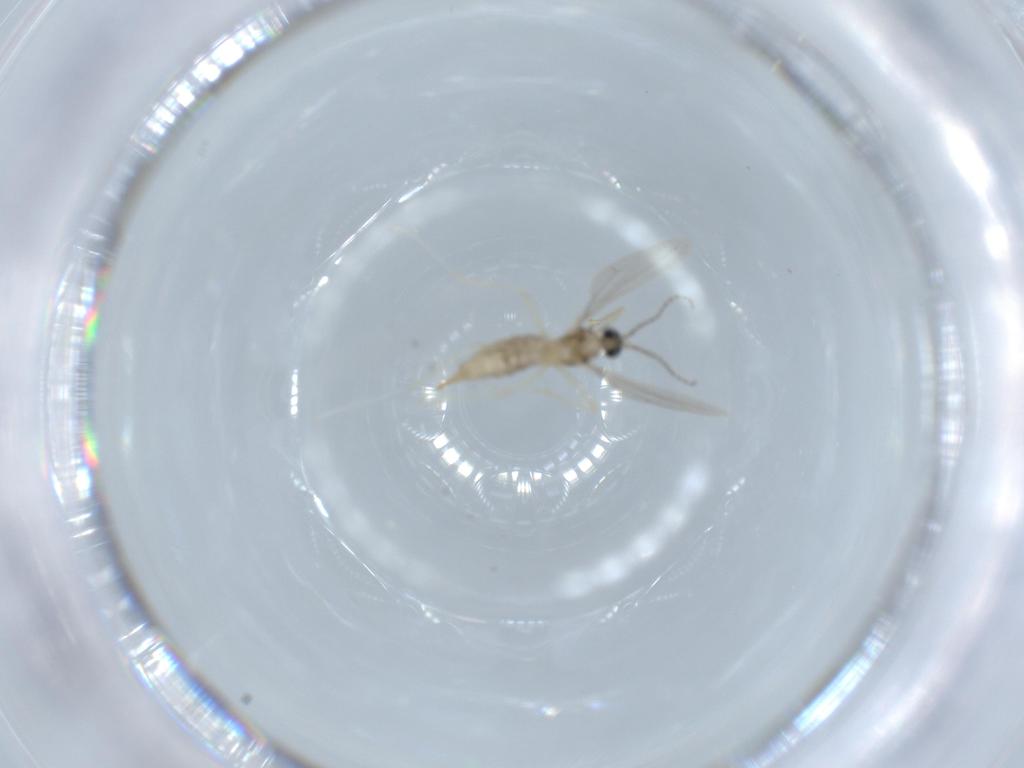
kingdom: Animalia
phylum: Arthropoda
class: Insecta
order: Diptera
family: Cecidomyiidae
